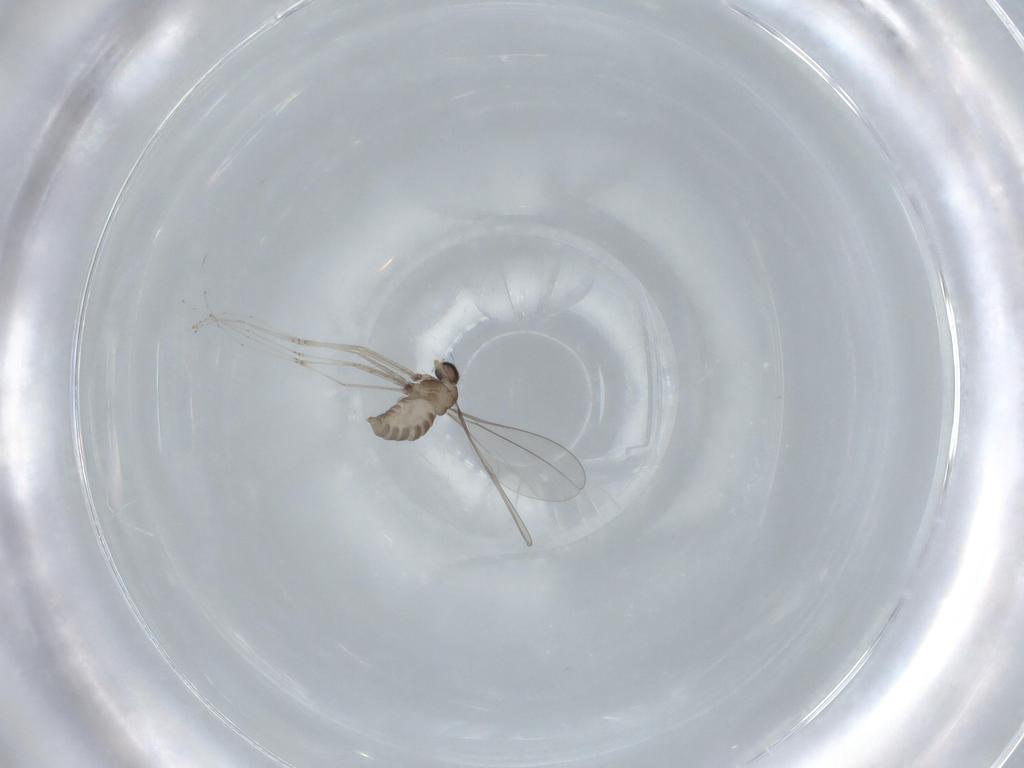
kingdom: Animalia
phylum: Arthropoda
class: Insecta
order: Diptera
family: Cecidomyiidae
